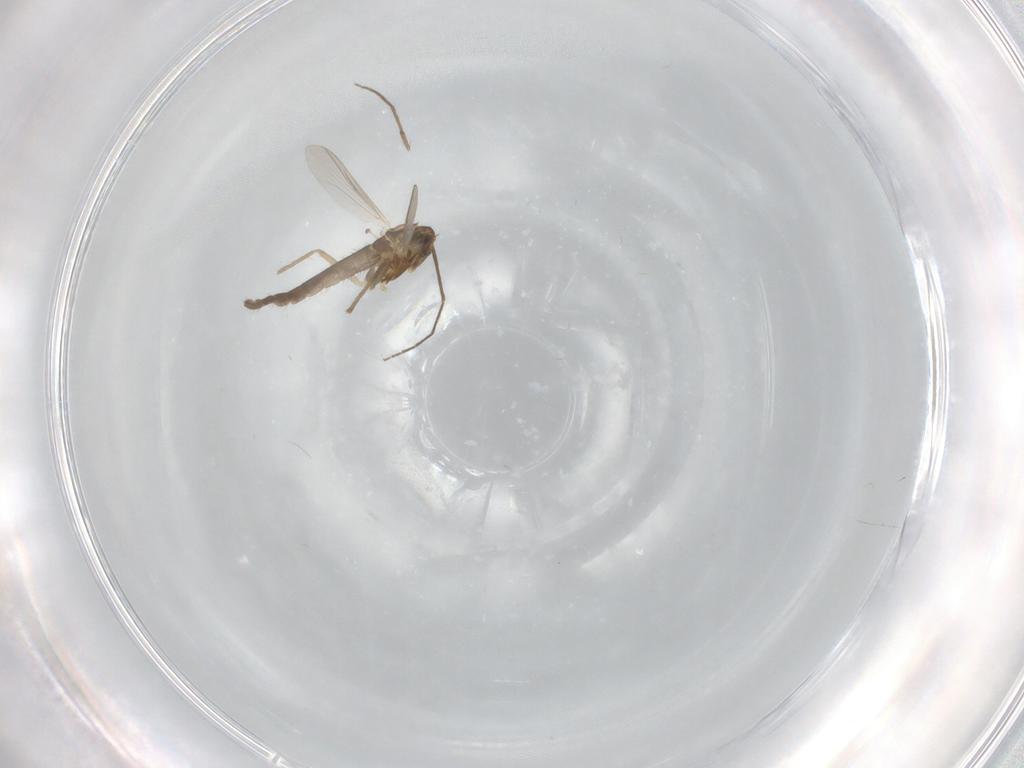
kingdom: Animalia
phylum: Arthropoda
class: Insecta
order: Diptera
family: Chironomidae
